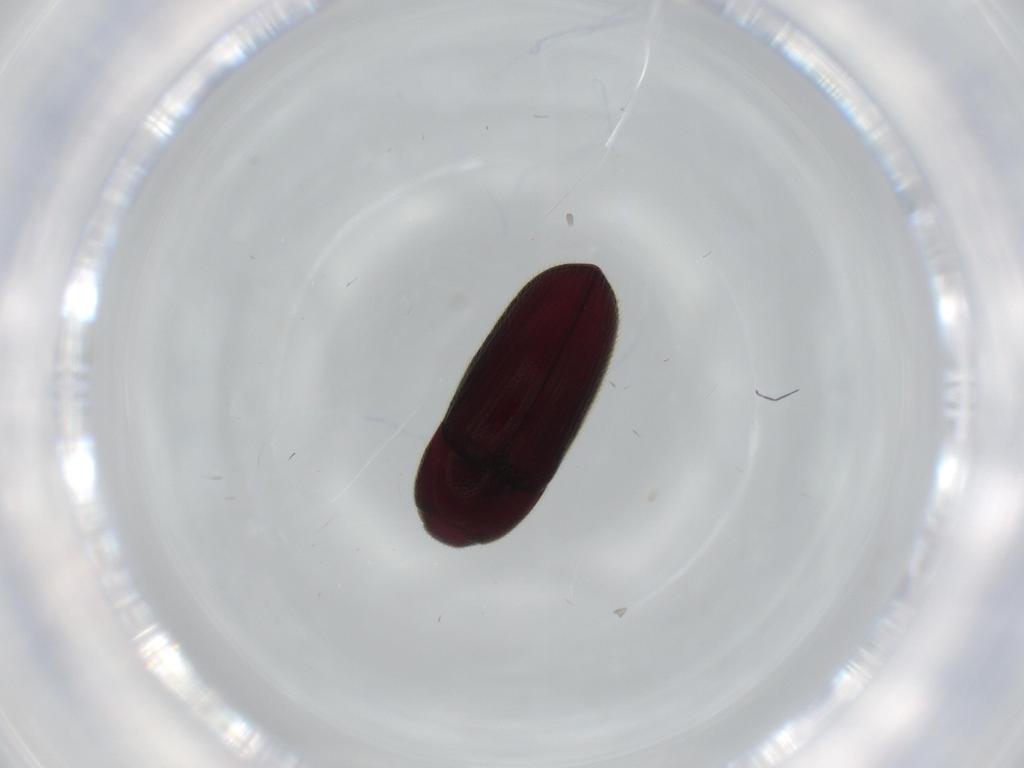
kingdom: Animalia
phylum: Arthropoda
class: Insecta
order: Coleoptera
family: Throscidae
